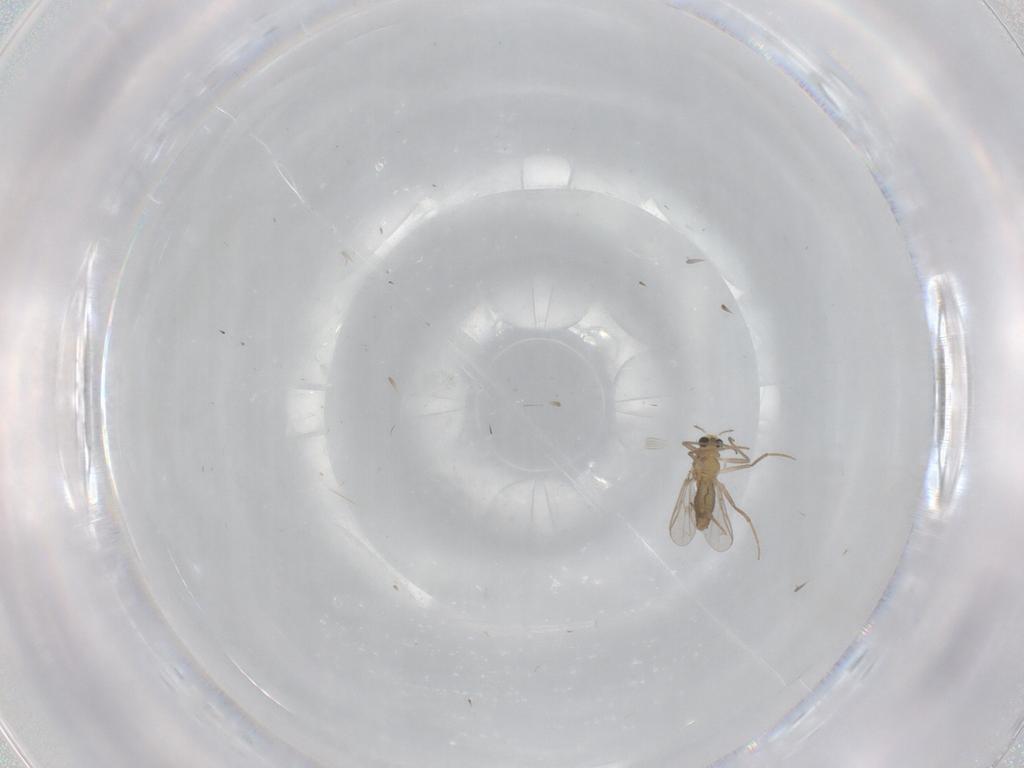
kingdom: Animalia
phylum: Arthropoda
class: Insecta
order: Diptera
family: Chironomidae
